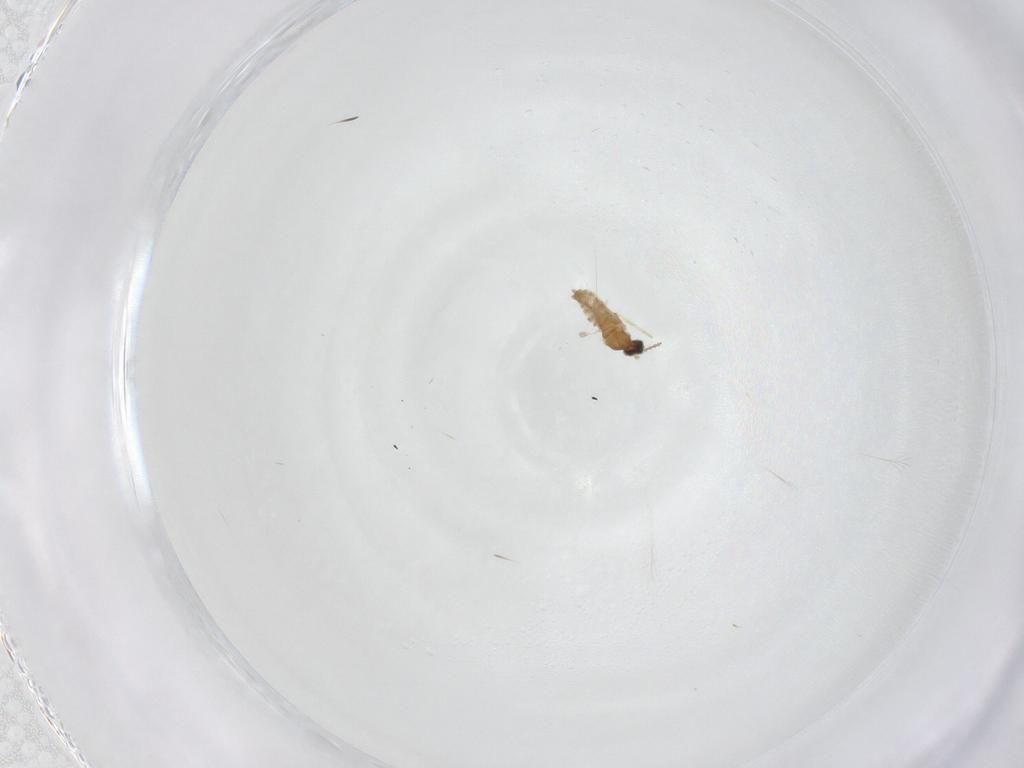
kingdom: Animalia
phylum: Arthropoda
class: Insecta
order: Diptera
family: Cecidomyiidae
